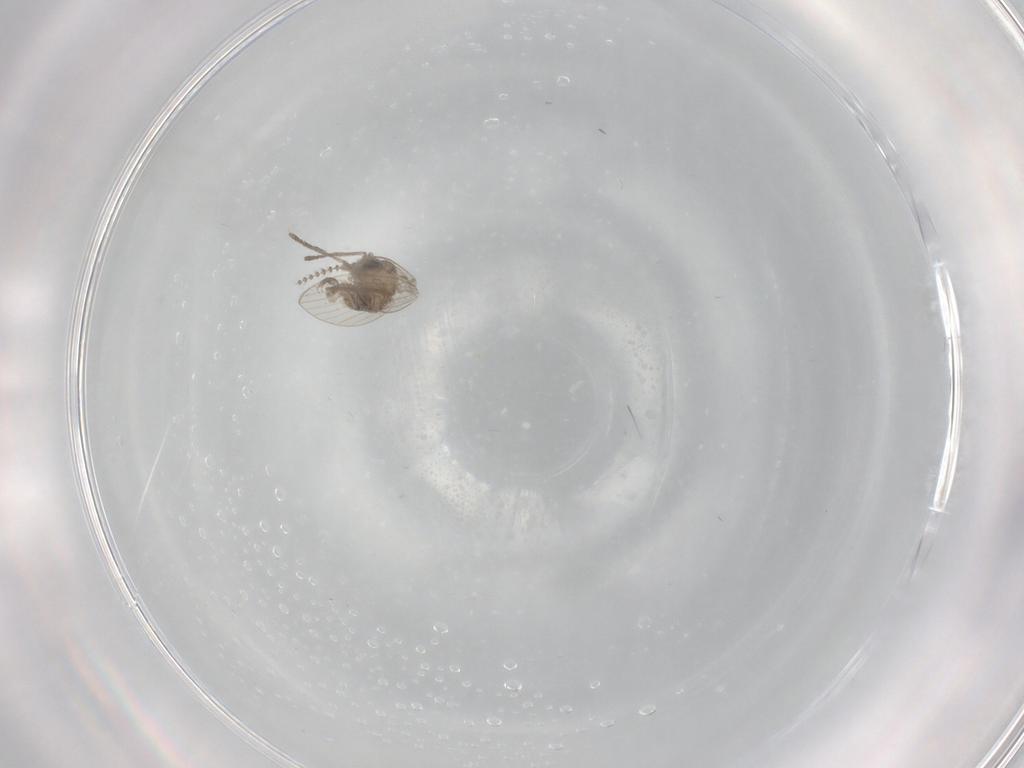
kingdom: Animalia
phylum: Arthropoda
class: Insecta
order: Diptera
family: Psychodidae
